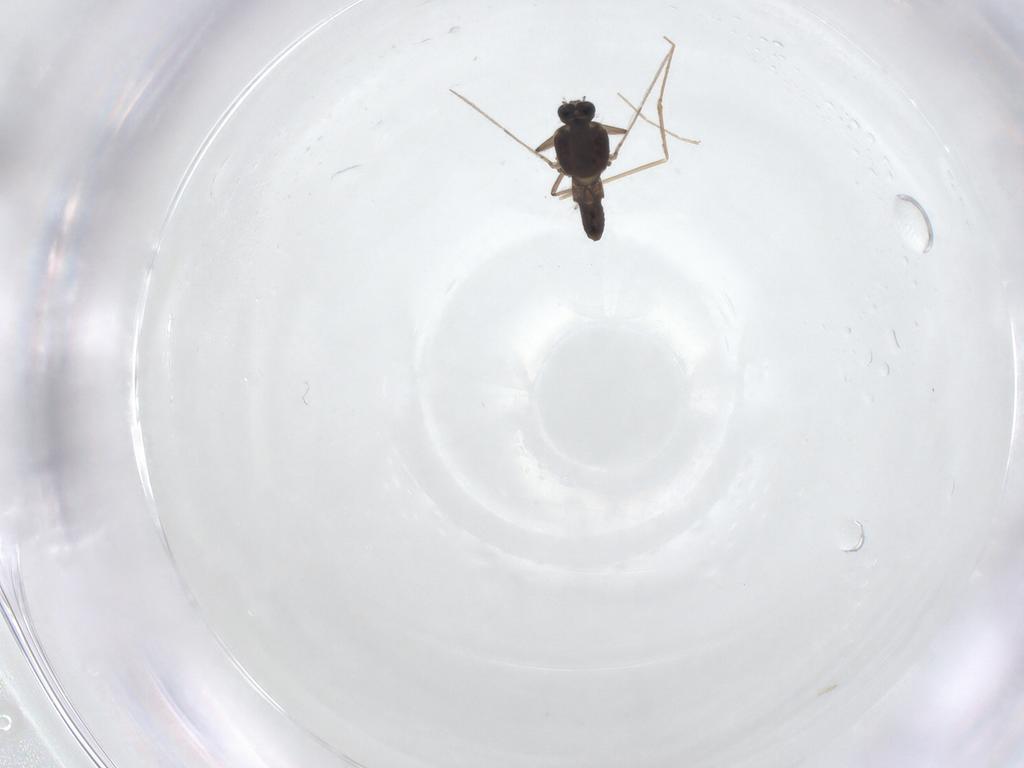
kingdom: Animalia
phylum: Arthropoda
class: Insecta
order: Diptera
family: Ceratopogonidae
